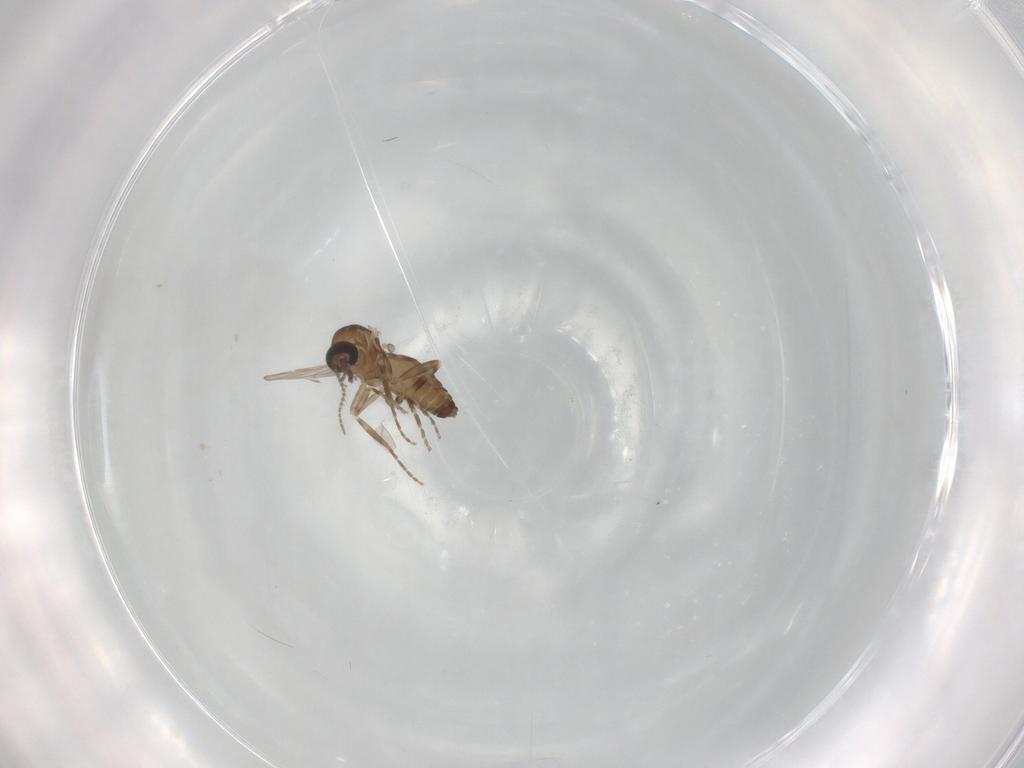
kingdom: Animalia
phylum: Arthropoda
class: Insecta
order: Diptera
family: Ceratopogonidae
